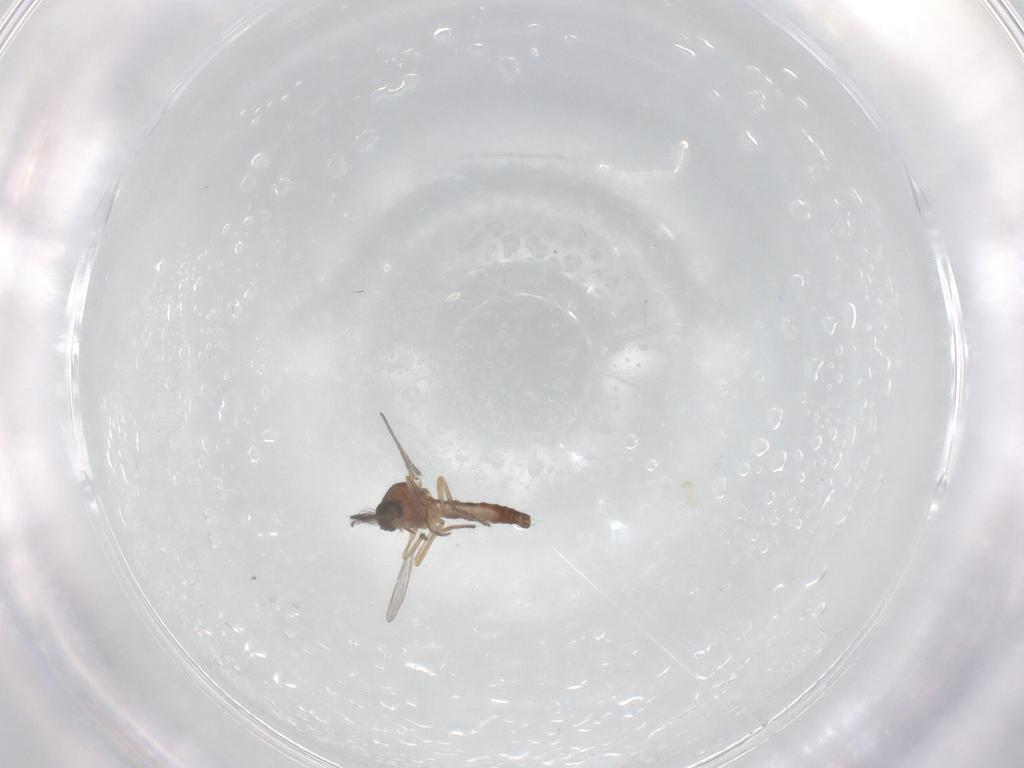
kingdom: Animalia
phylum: Arthropoda
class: Insecta
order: Diptera
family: Ceratopogonidae
